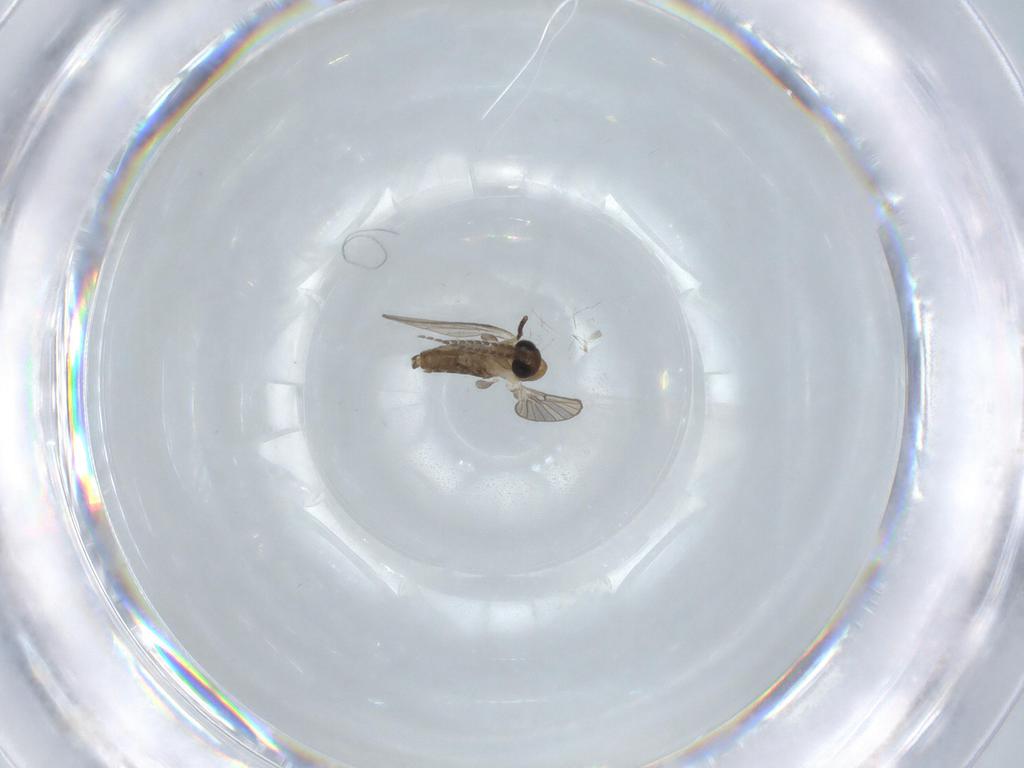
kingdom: Animalia
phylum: Arthropoda
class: Insecta
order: Diptera
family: Psychodidae
